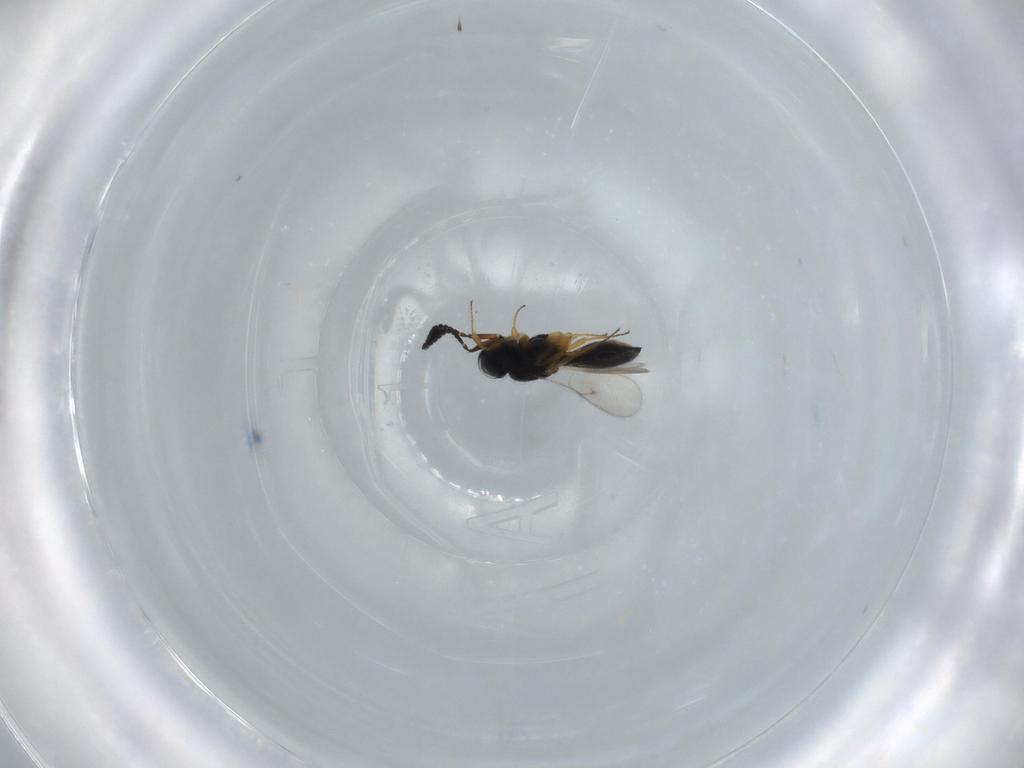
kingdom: Animalia
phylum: Arthropoda
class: Insecta
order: Hymenoptera
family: Scelionidae
